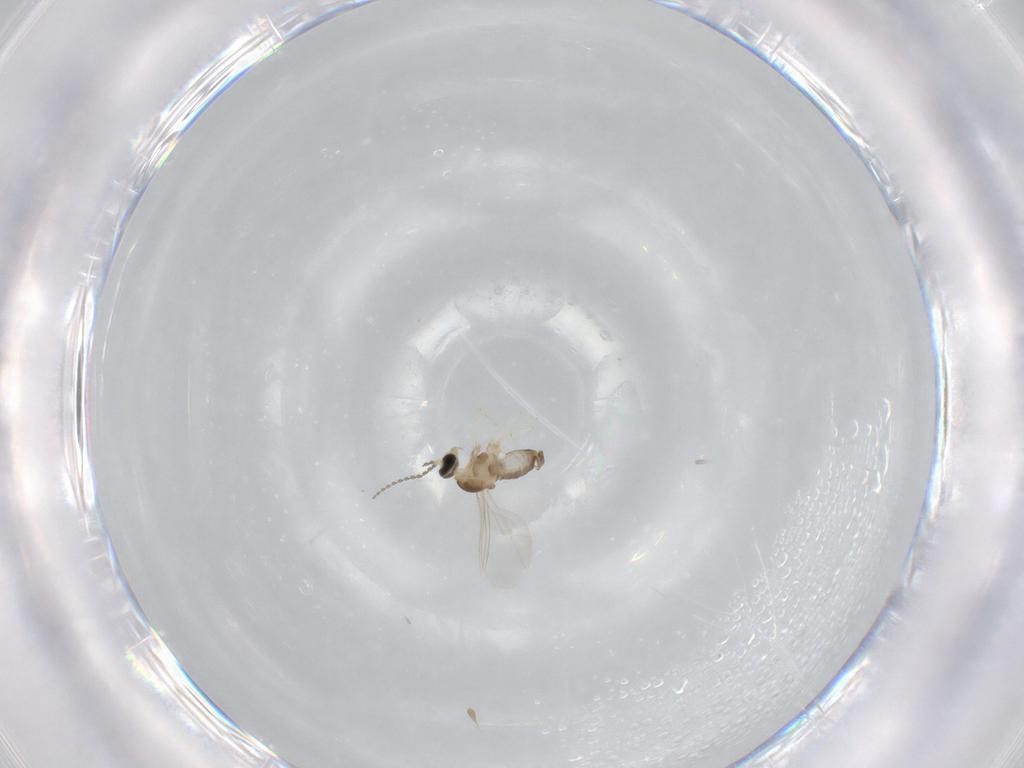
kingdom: Animalia
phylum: Arthropoda
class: Insecta
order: Diptera
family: Cecidomyiidae
